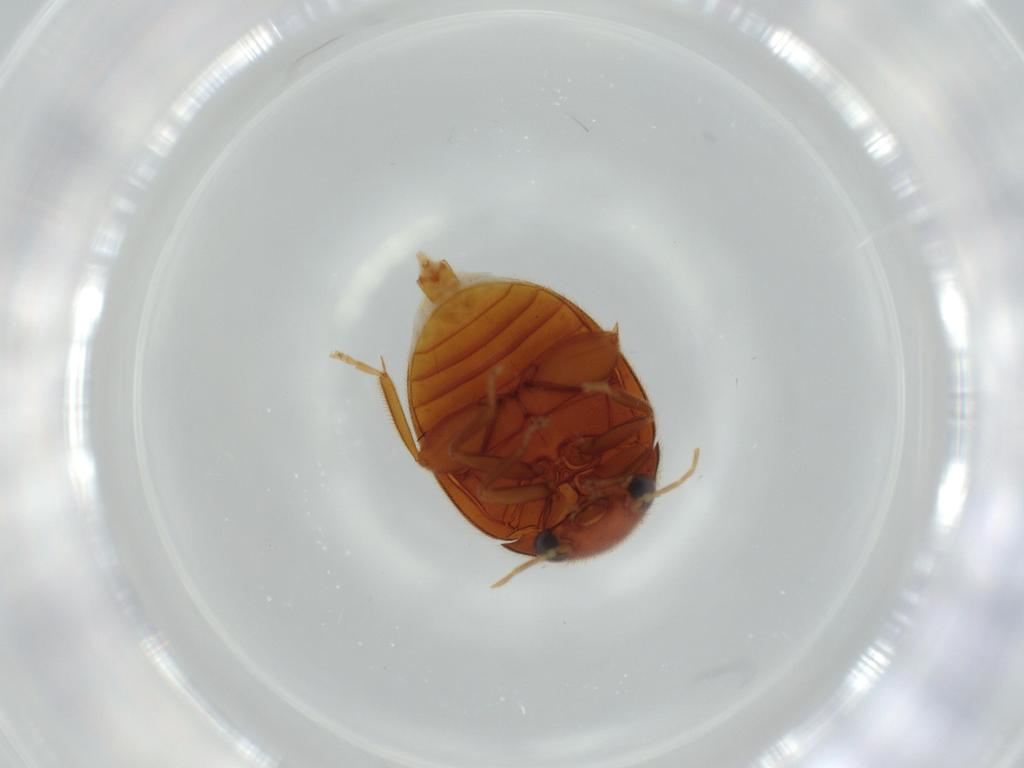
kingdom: Animalia
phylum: Arthropoda
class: Insecta
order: Coleoptera
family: Scirtidae
